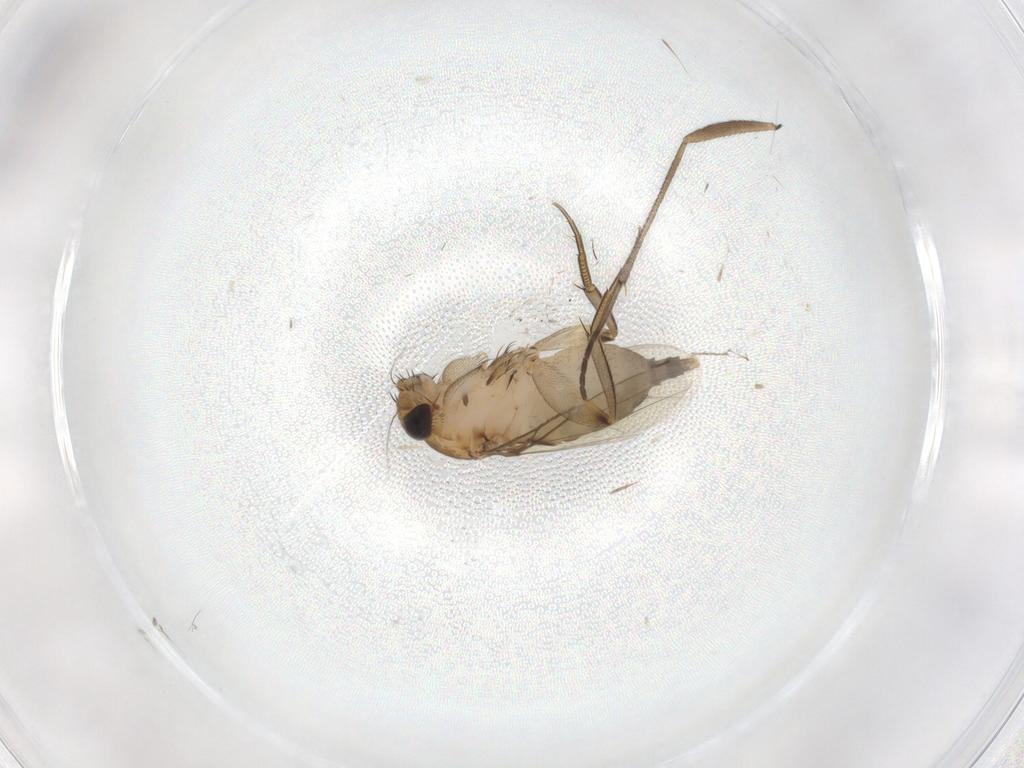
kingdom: Animalia
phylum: Arthropoda
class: Insecta
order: Diptera
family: Phoridae
